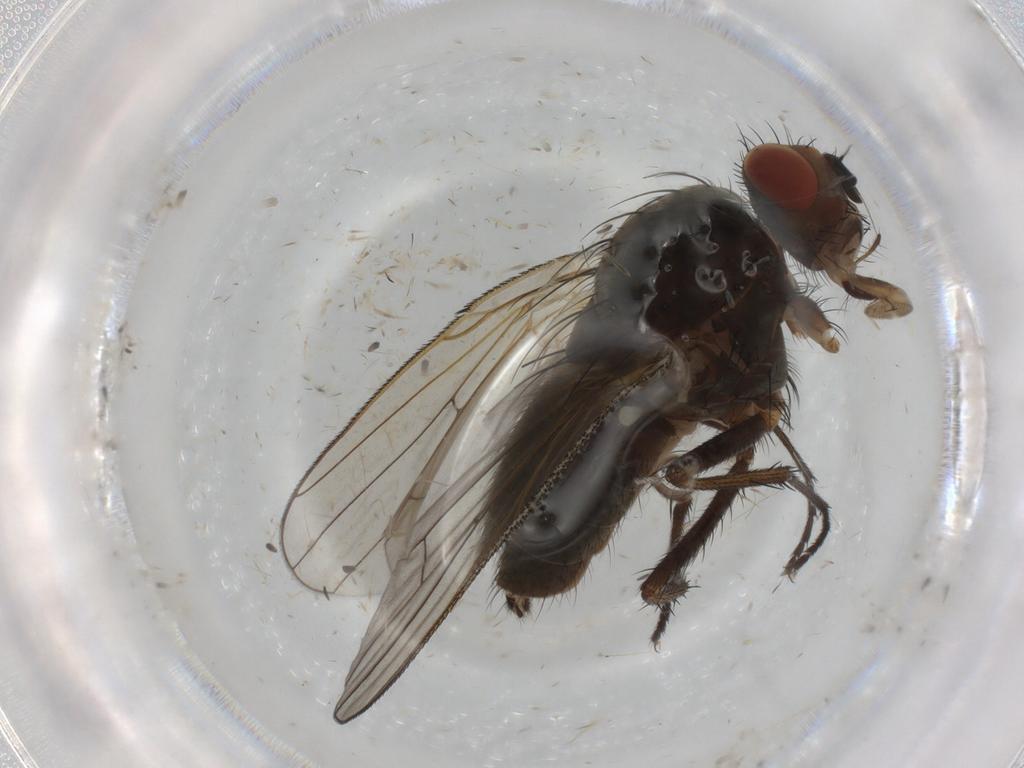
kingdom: Animalia
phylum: Arthropoda
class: Insecta
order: Diptera
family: Anthomyiidae
